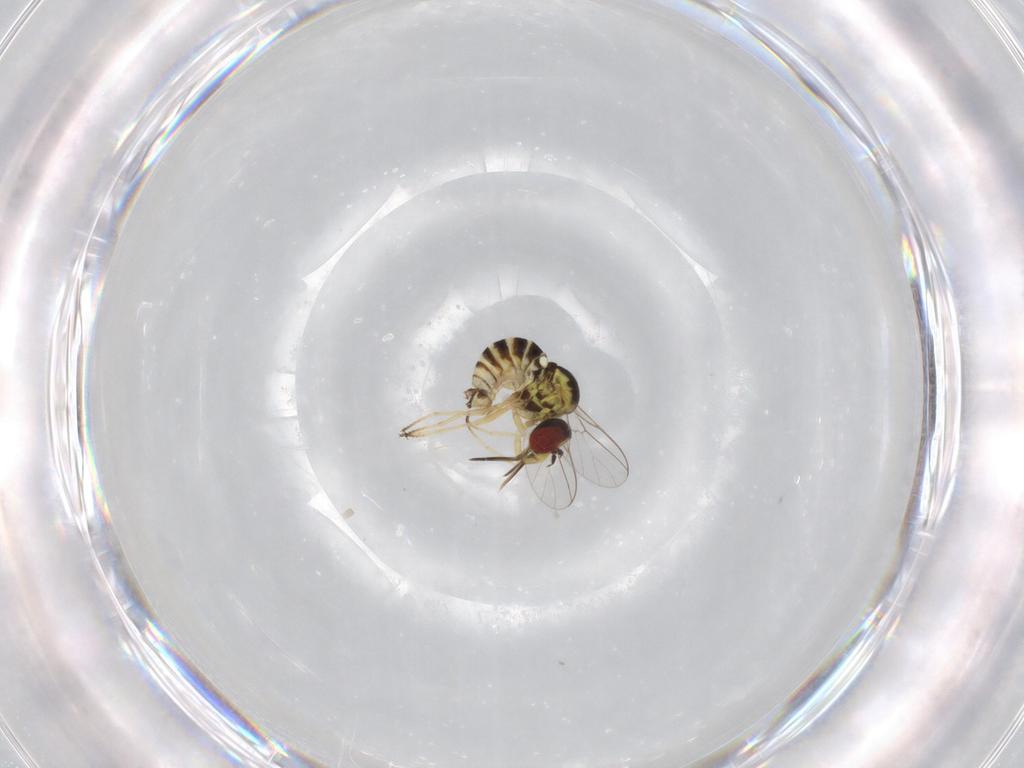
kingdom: Animalia
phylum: Arthropoda
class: Insecta
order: Diptera
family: Bombyliidae
